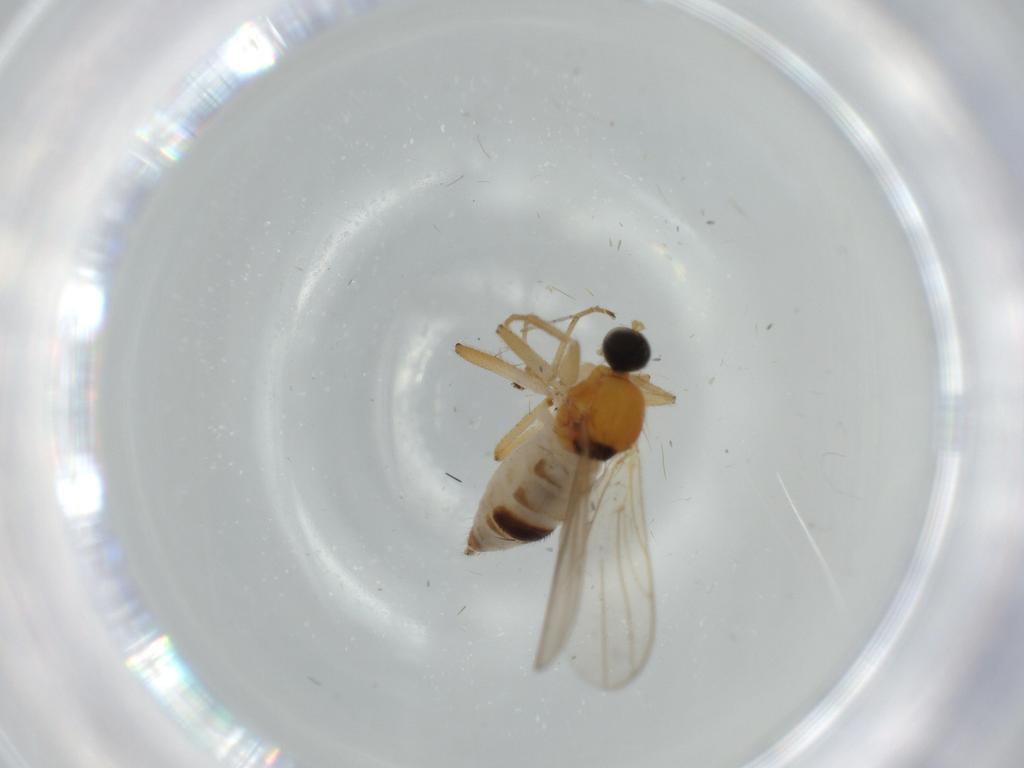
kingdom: Animalia
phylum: Arthropoda
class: Insecta
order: Diptera
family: Hybotidae
